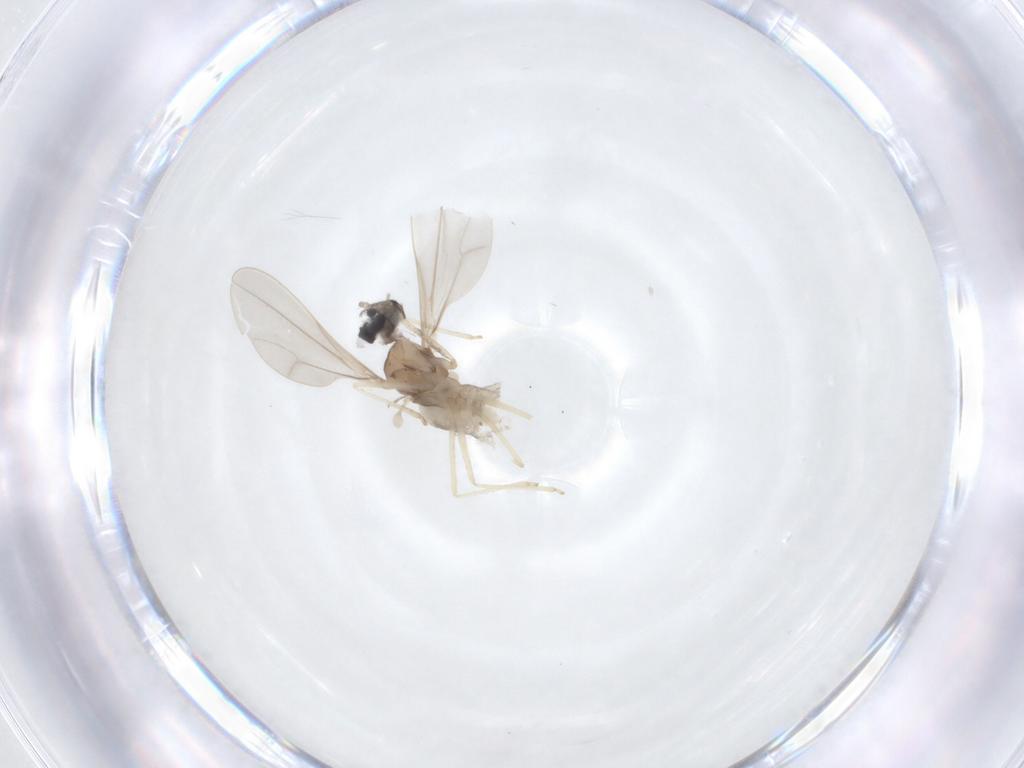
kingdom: Animalia
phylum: Arthropoda
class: Insecta
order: Diptera
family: Cecidomyiidae
